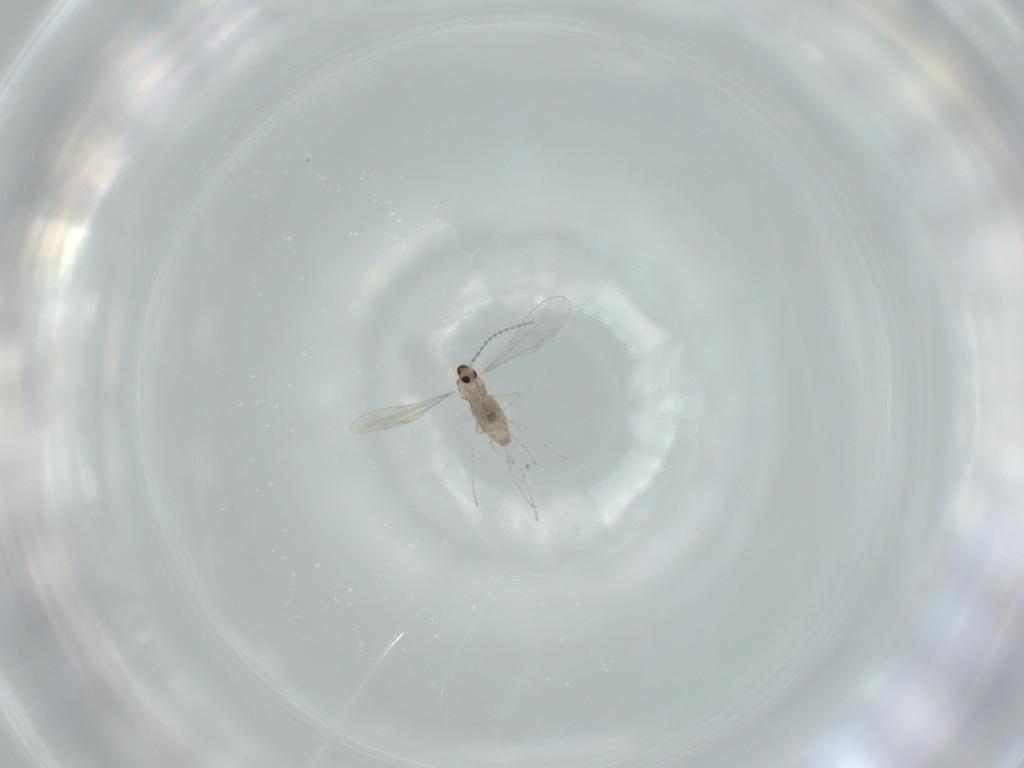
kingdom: Animalia
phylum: Arthropoda
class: Insecta
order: Diptera
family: Cecidomyiidae
